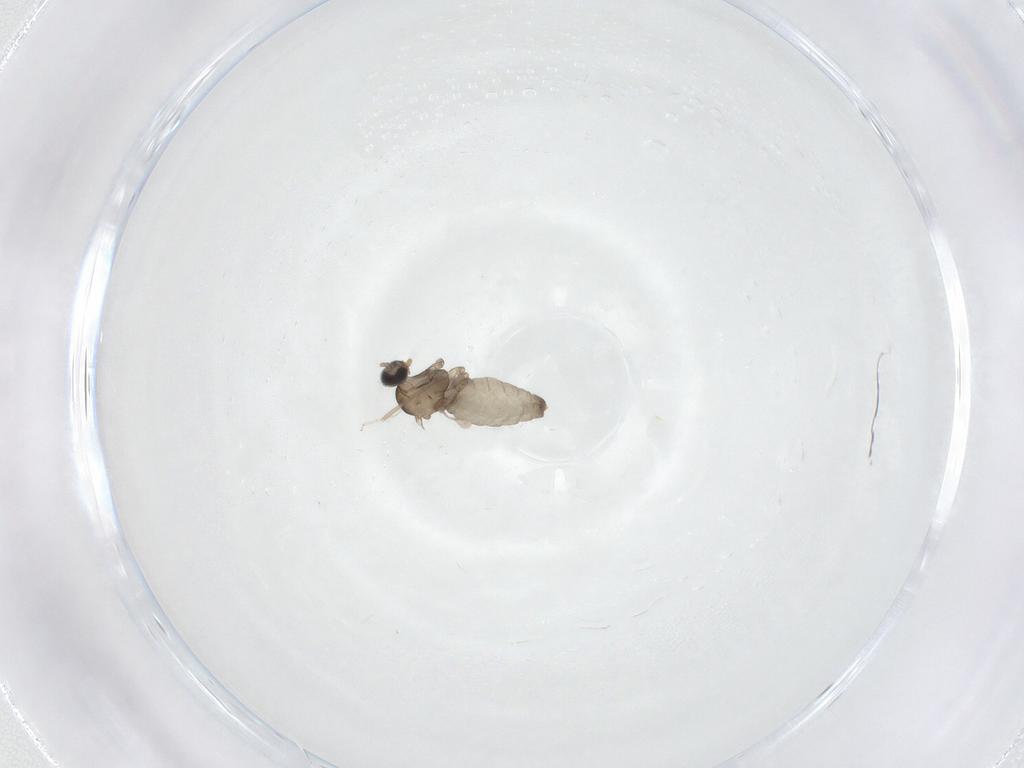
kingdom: Animalia
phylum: Arthropoda
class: Insecta
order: Diptera
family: Cecidomyiidae
